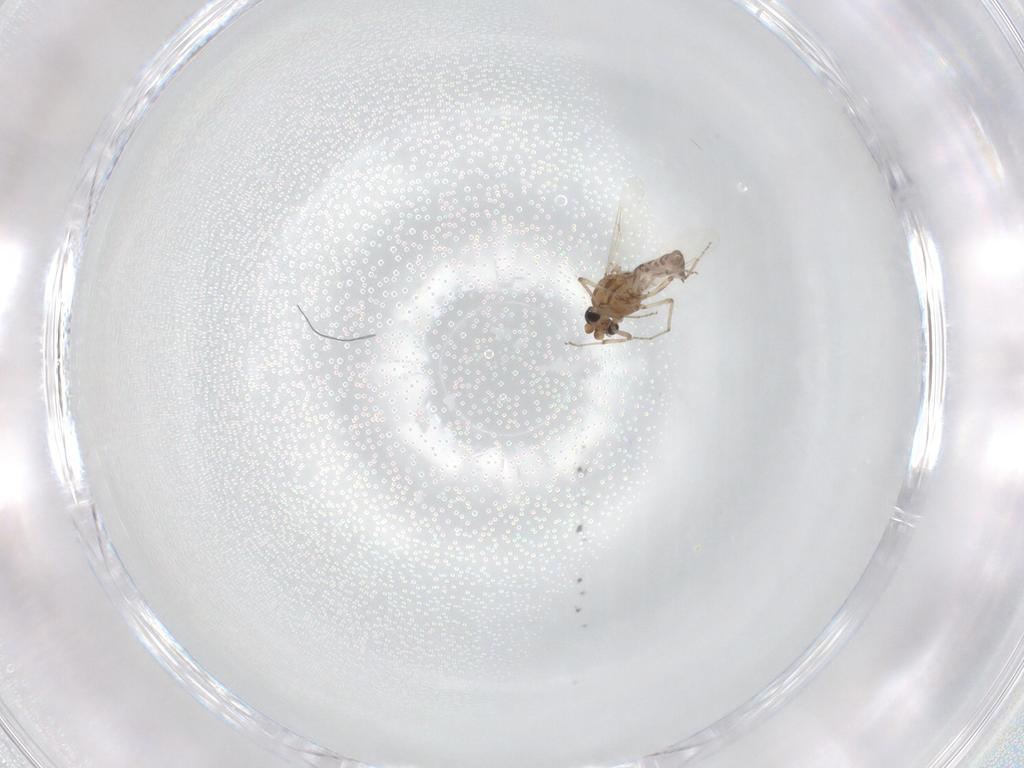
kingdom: Animalia
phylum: Arthropoda
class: Insecta
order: Diptera
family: Ceratopogonidae
